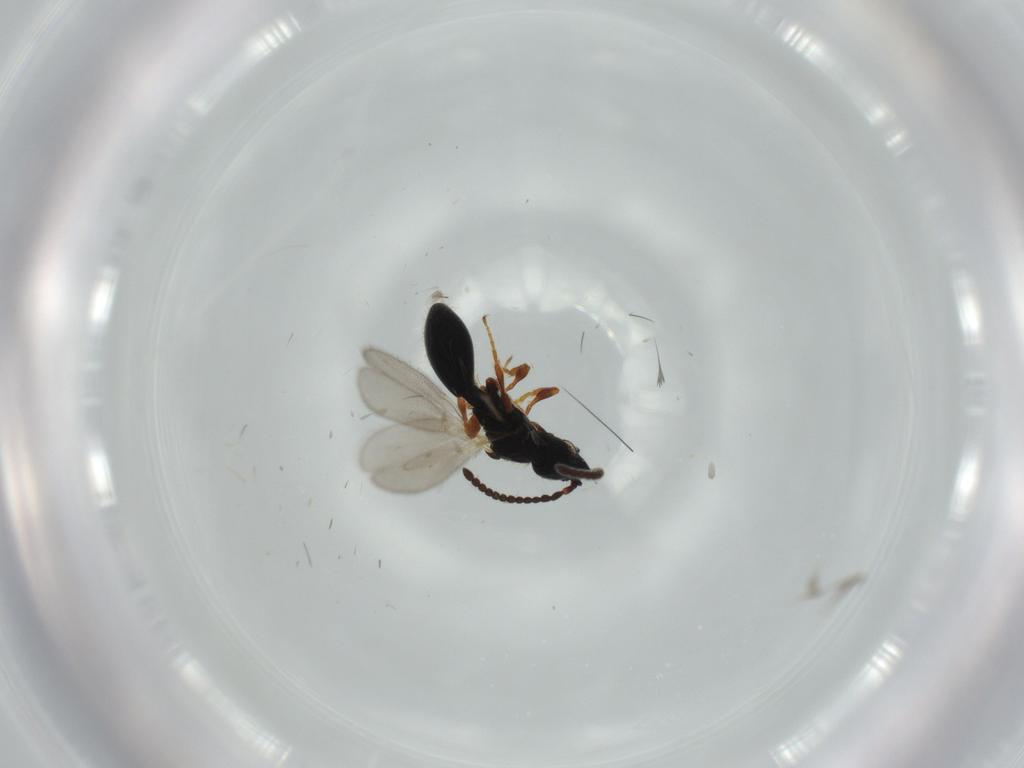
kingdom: Animalia
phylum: Arthropoda
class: Insecta
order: Hymenoptera
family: Diapriidae
